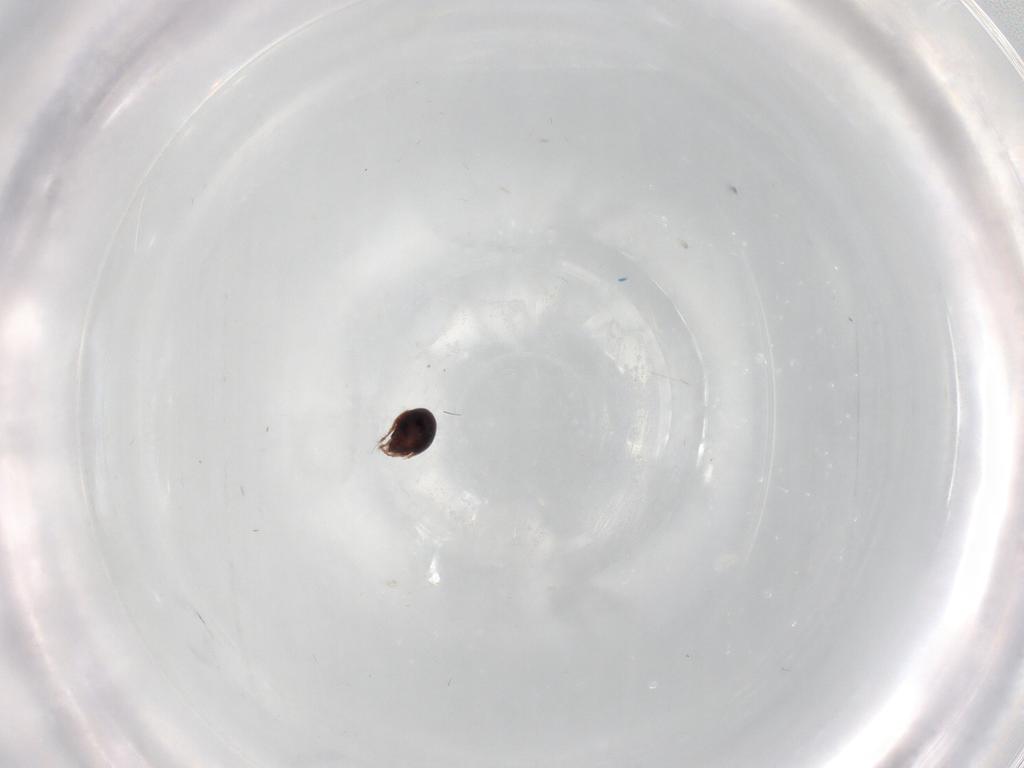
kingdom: Animalia
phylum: Arthropoda
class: Arachnida
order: Sarcoptiformes
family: Achipteriidae
